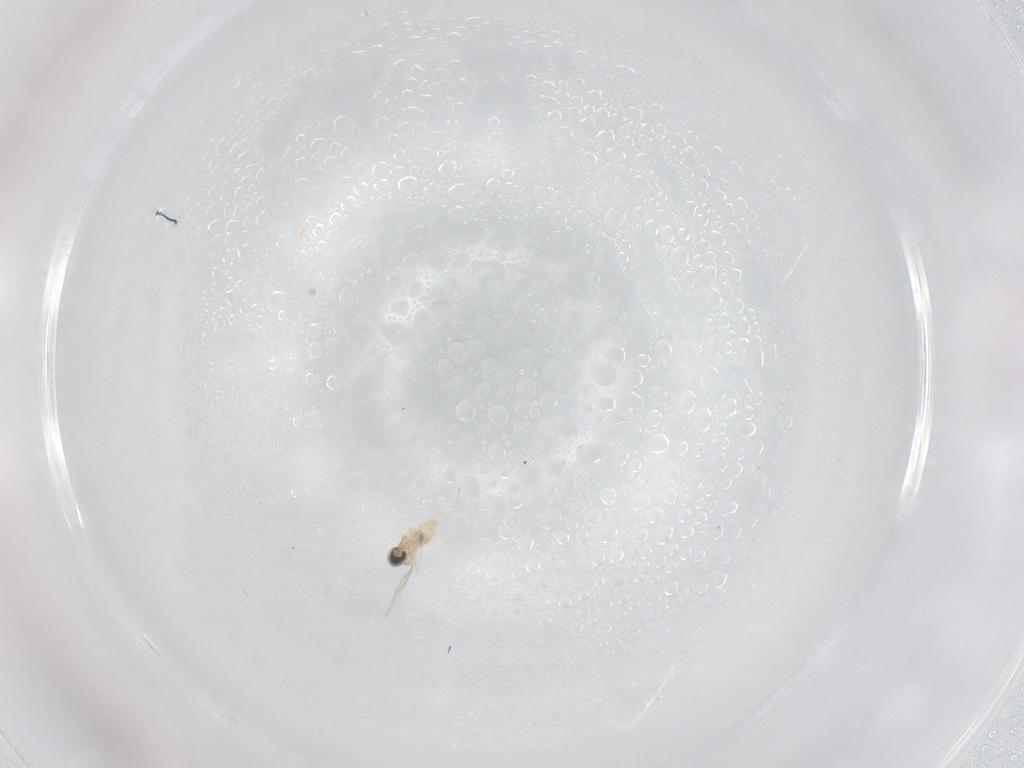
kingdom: Animalia
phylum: Arthropoda
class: Insecta
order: Diptera
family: Cecidomyiidae
